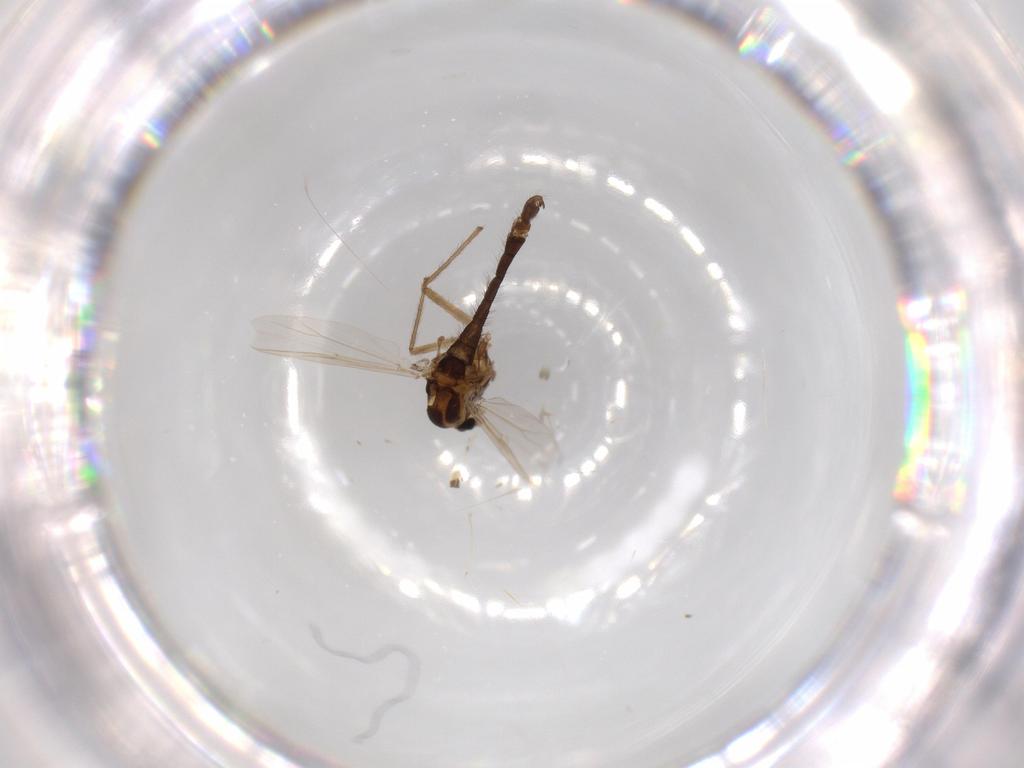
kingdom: Animalia
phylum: Arthropoda
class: Insecta
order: Diptera
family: Chironomidae
